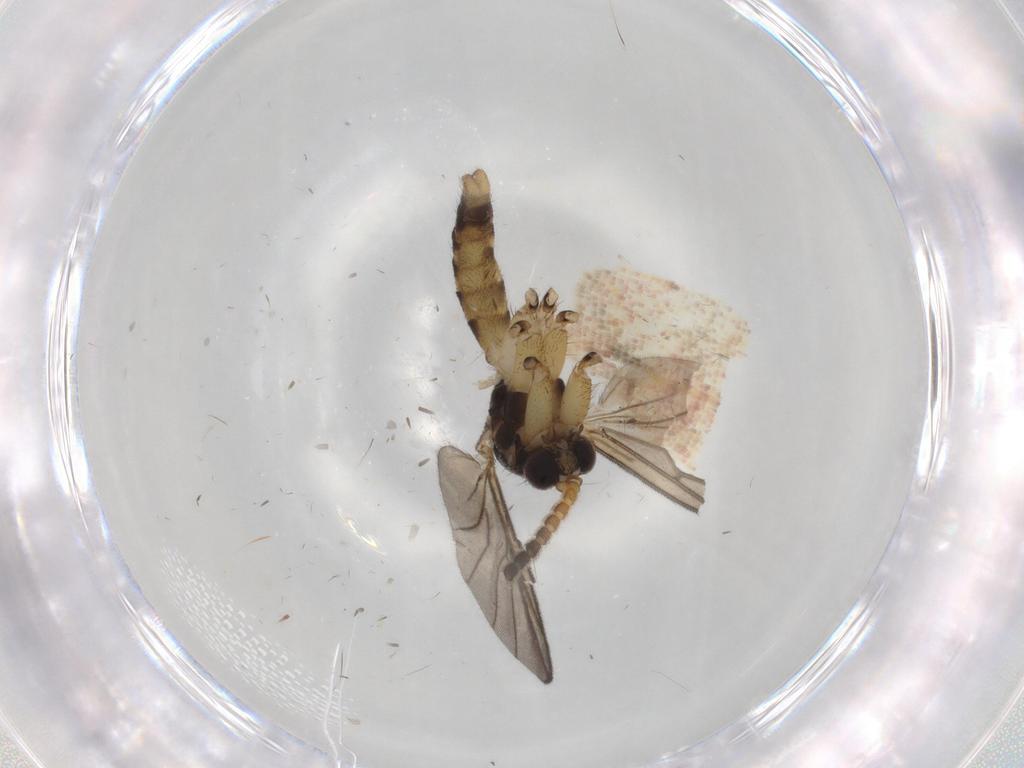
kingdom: Animalia
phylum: Arthropoda
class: Insecta
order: Diptera
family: Mycetophilidae
